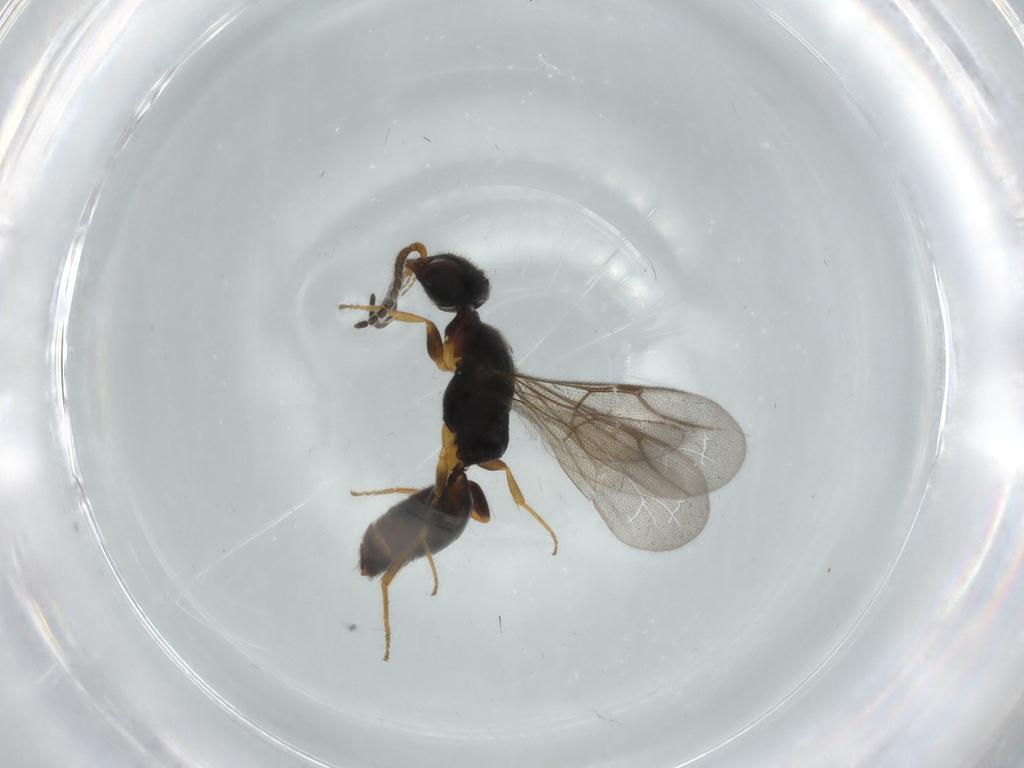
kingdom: Animalia
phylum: Arthropoda
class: Insecta
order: Hymenoptera
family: Bethylidae
